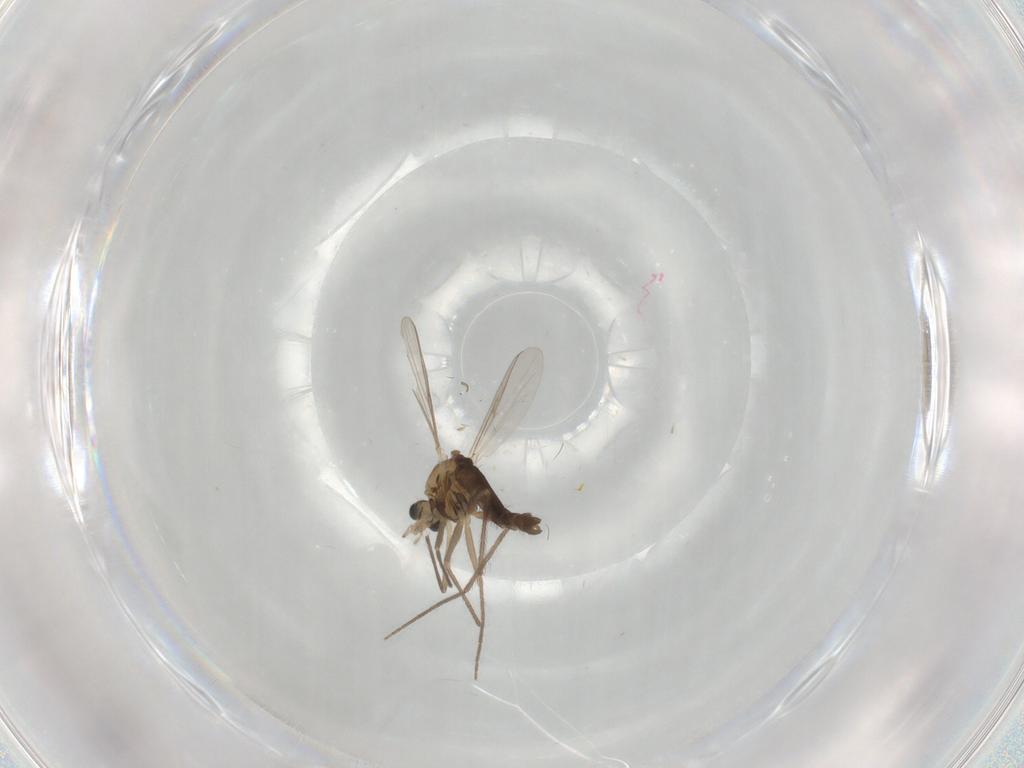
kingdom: Animalia
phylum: Arthropoda
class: Insecta
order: Diptera
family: Chironomidae
